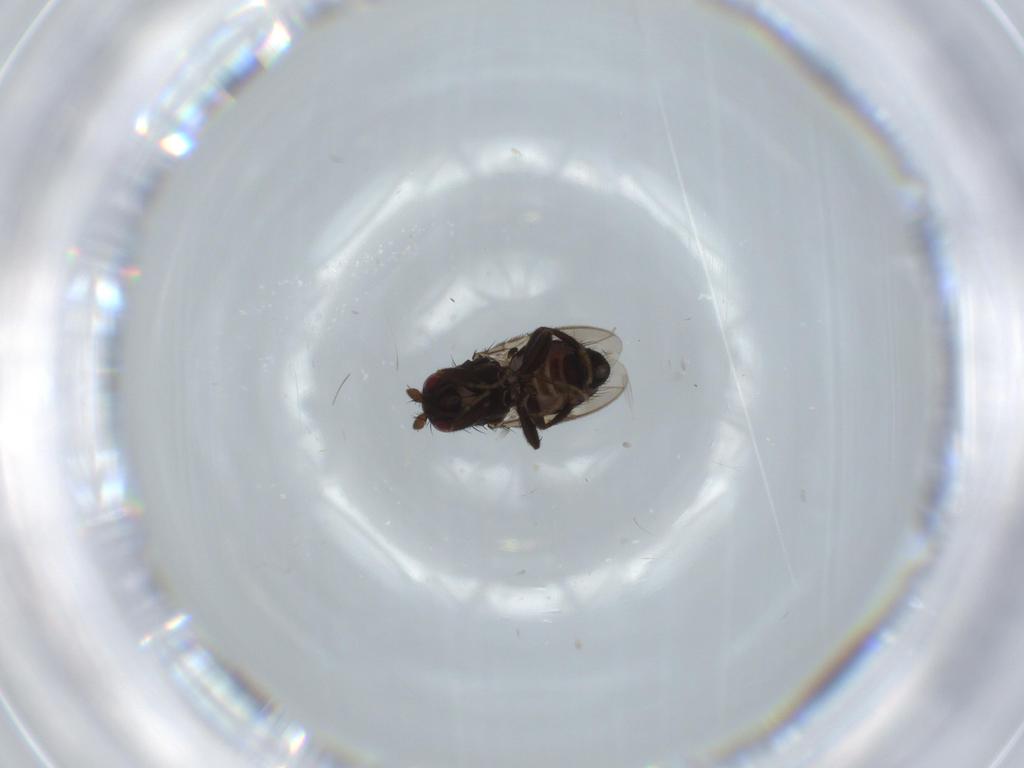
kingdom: Animalia
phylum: Arthropoda
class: Insecta
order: Diptera
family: Sphaeroceridae
